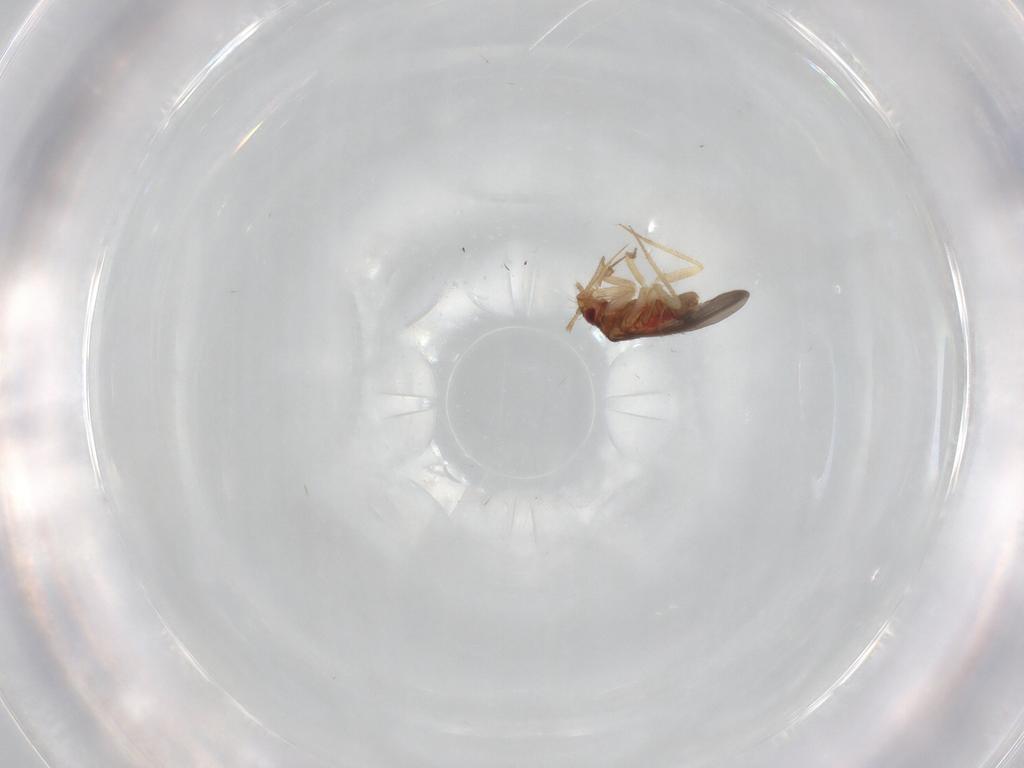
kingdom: Animalia
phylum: Arthropoda
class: Insecta
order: Hemiptera
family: Ceratocombidae
